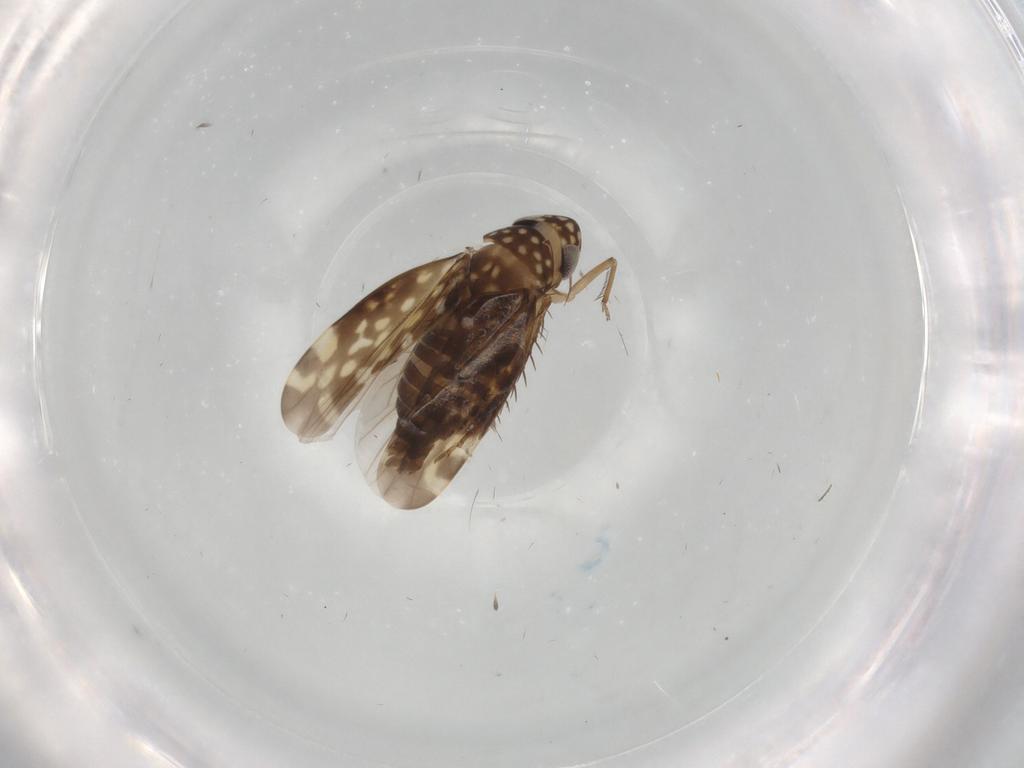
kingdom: Animalia
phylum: Arthropoda
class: Insecta
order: Hemiptera
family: Cicadellidae
